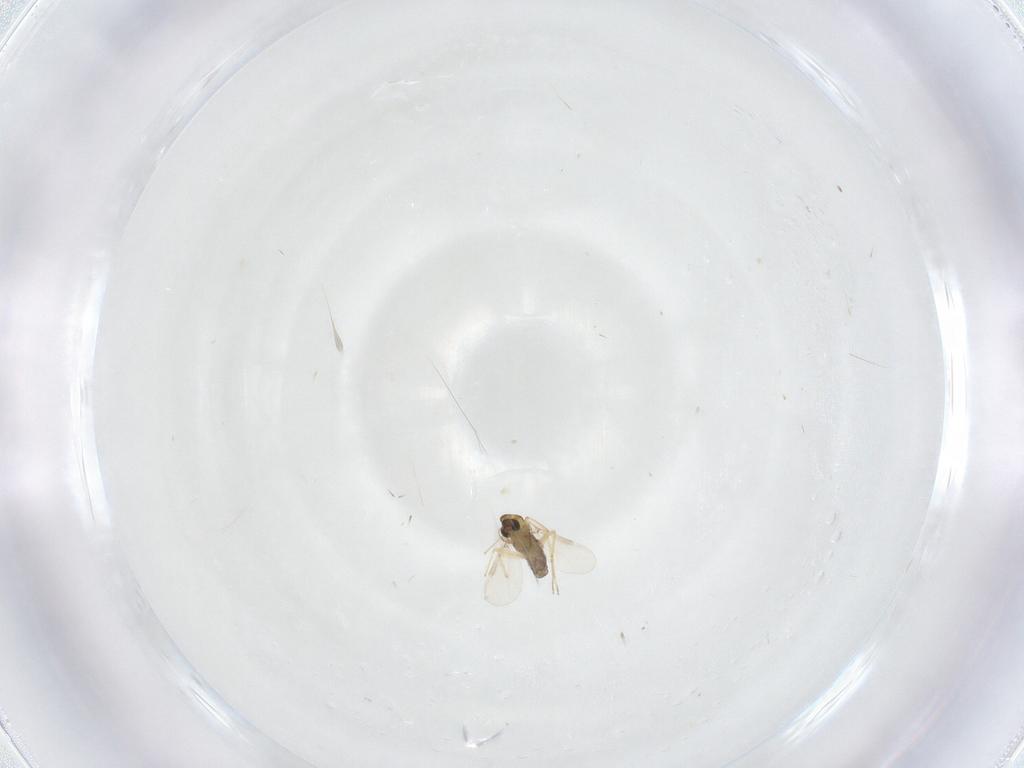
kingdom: Animalia
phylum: Arthropoda
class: Insecta
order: Diptera
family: Chironomidae
